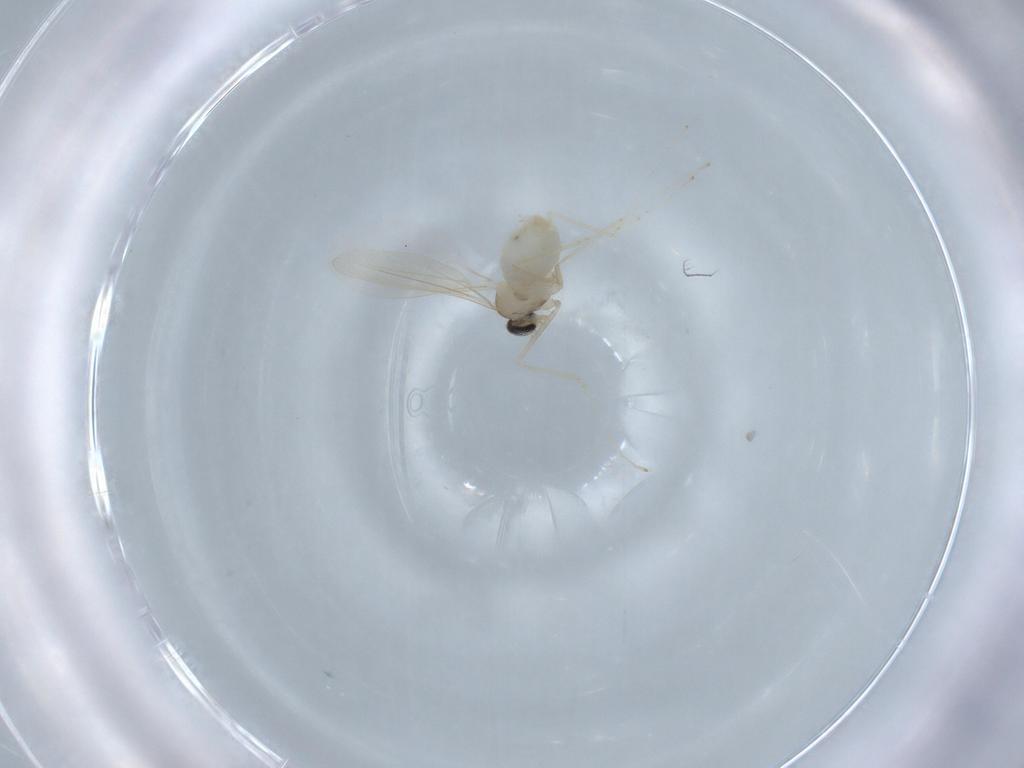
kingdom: Animalia
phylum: Arthropoda
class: Insecta
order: Diptera
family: Cecidomyiidae
